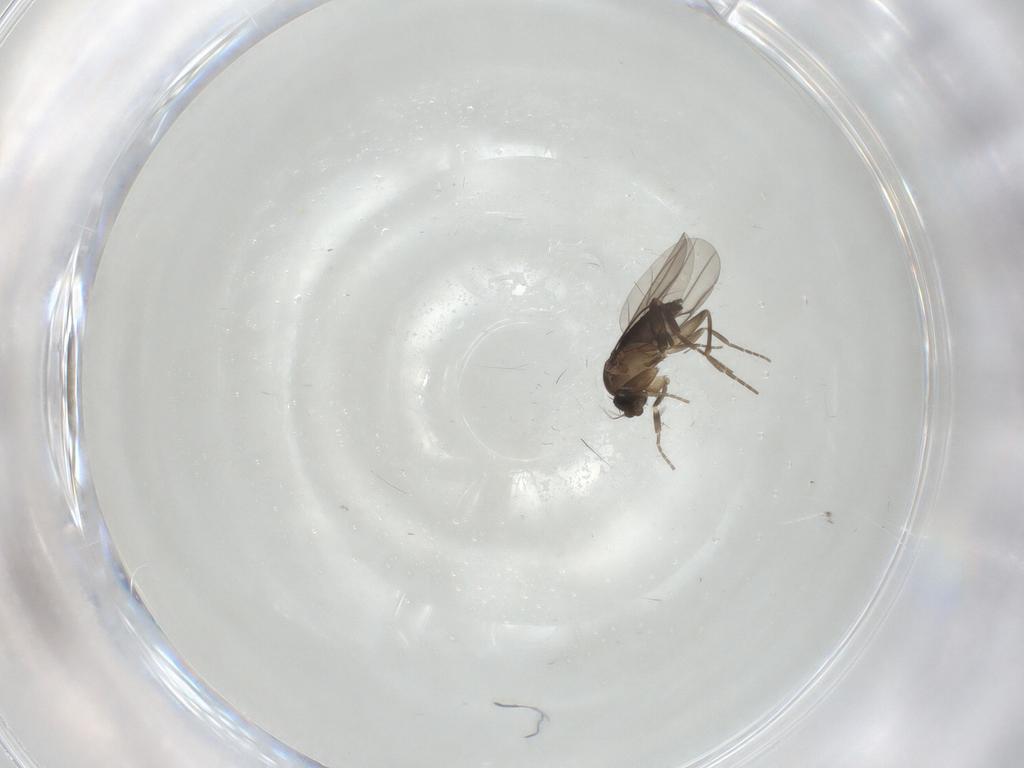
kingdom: Animalia
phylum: Arthropoda
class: Insecta
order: Diptera
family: Phoridae
